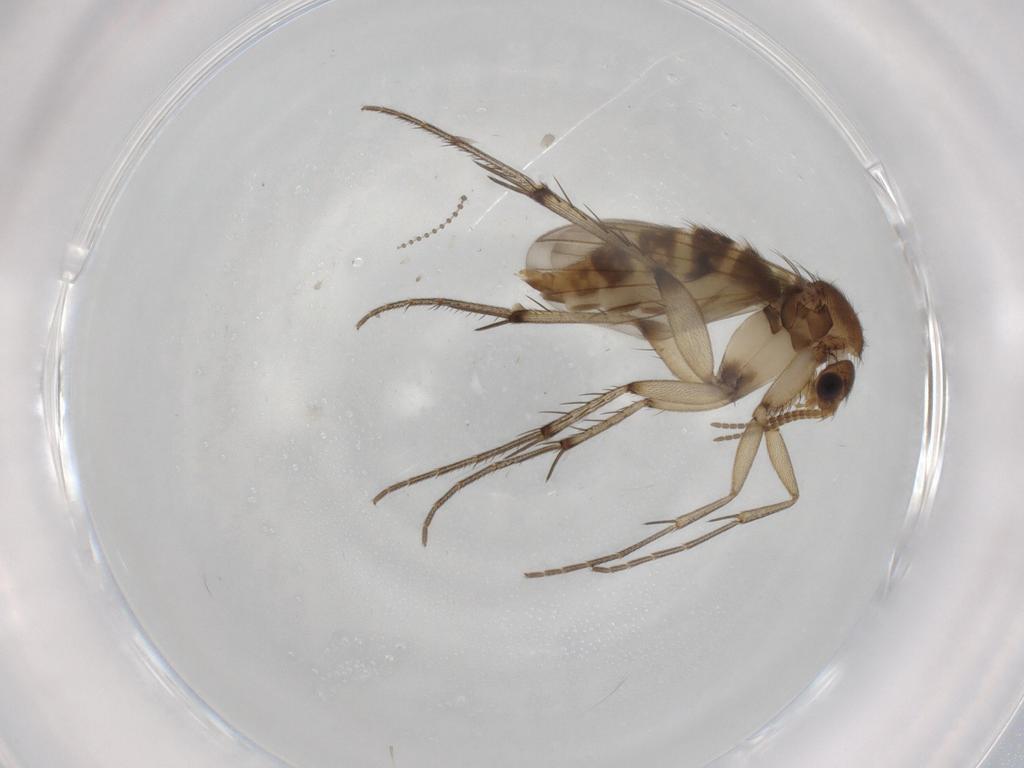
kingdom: Animalia
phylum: Arthropoda
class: Insecta
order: Diptera
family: Mycetophilidae
